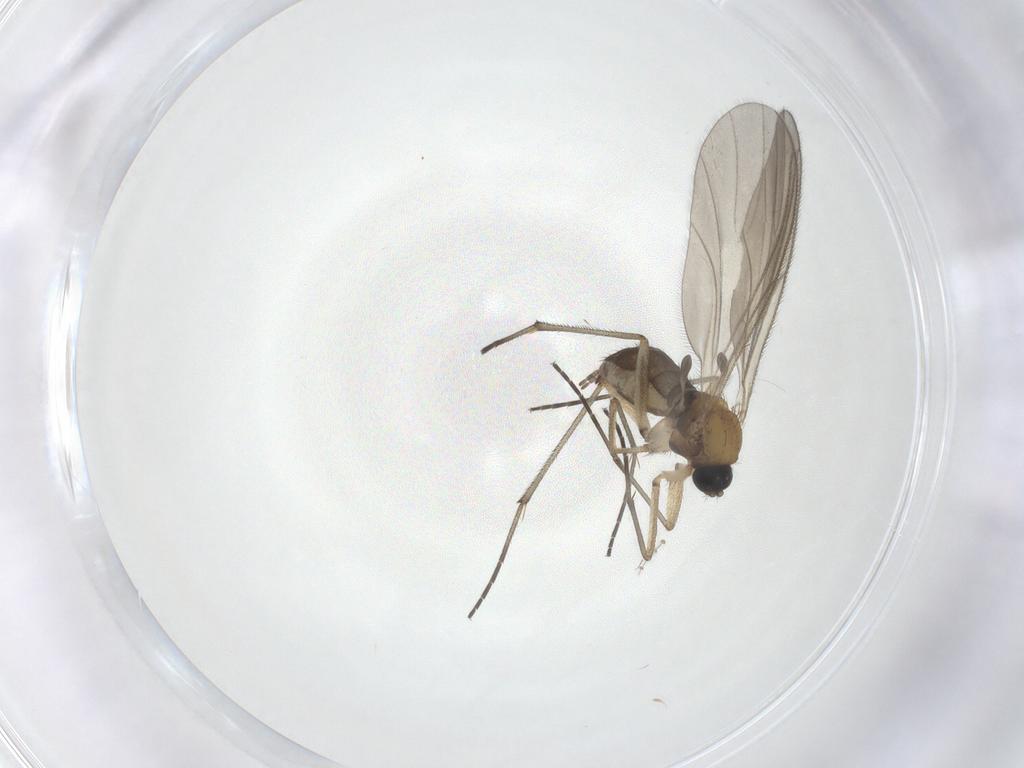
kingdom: Animalia
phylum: Arthropoda
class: Insecta
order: Diptera
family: Sciaridae
